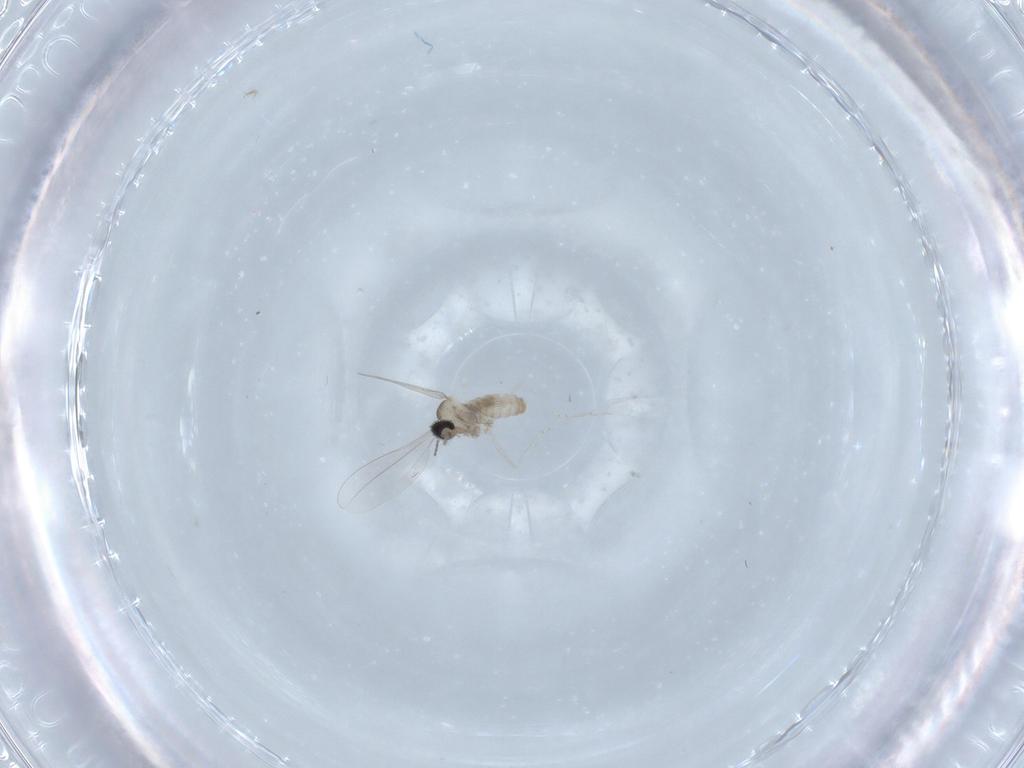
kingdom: Animalia
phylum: Arthropoda
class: Insecta
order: Diptera
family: Cecidomyiidae
